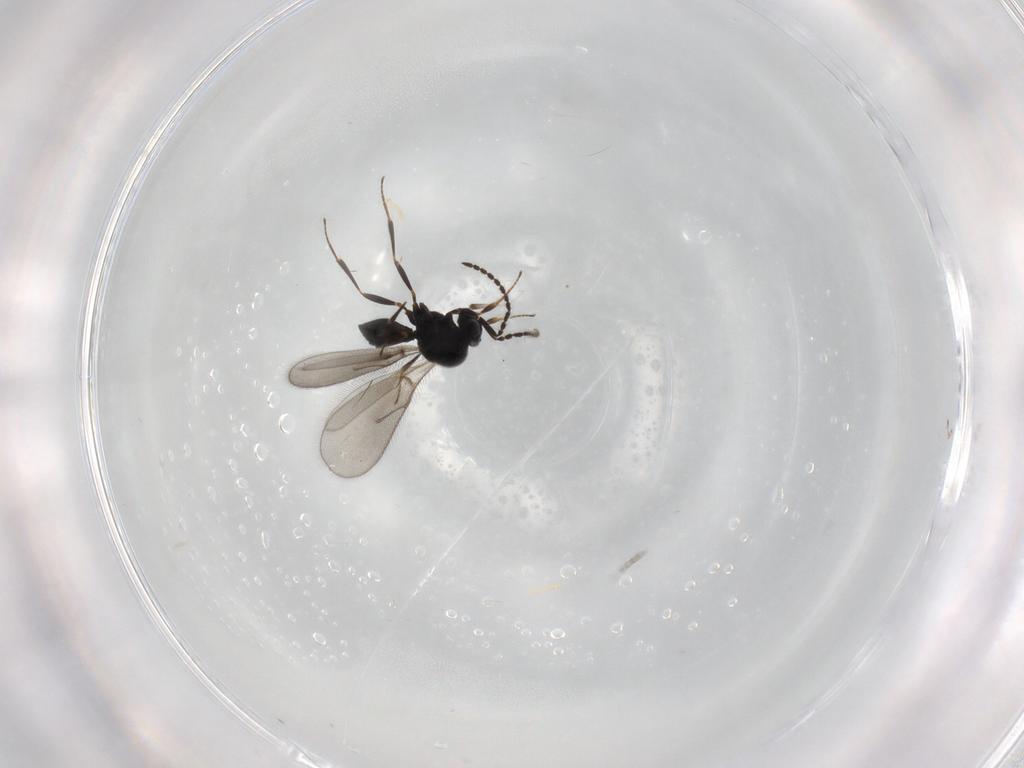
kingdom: Animalia
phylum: Arthropoda
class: Insecta
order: Hymenoptera
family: Scelionidae
